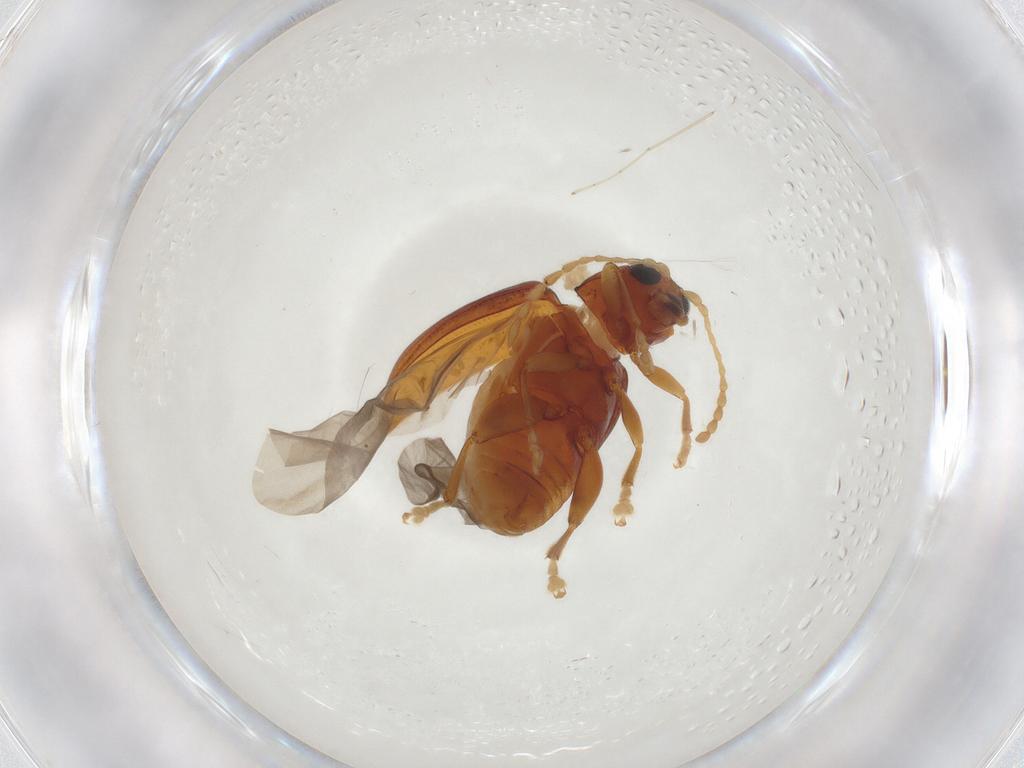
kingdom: Animalia
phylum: Arthropoda
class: Insecta
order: Coleoptera
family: Chrysomelidae
